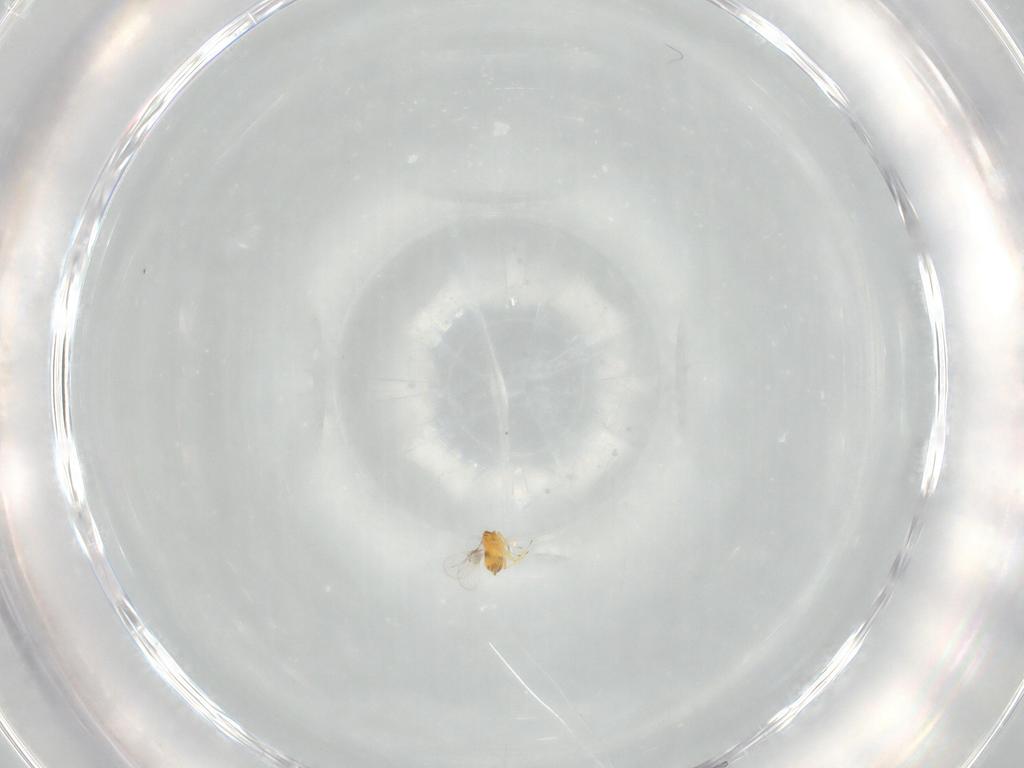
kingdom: Animalia
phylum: Arthropoda
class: Insecta
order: Hymenoptera
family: Trichogrammatidae
